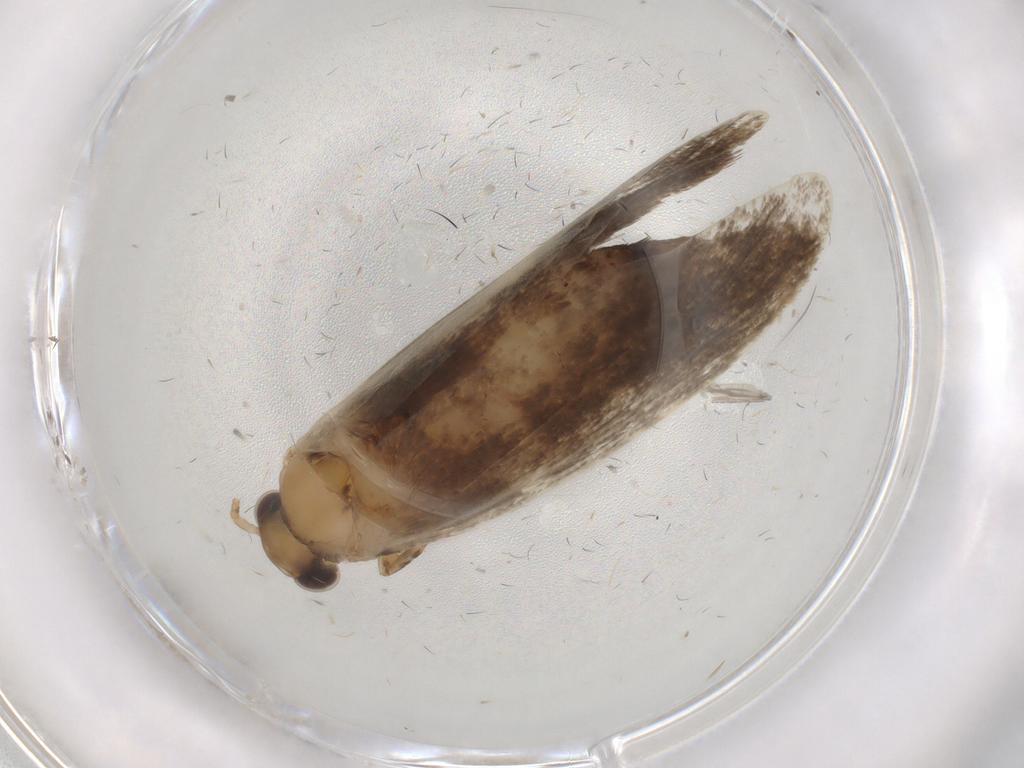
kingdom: Animalia
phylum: Arthropoda
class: Insecta
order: Lepidoptera
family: Tineidae
